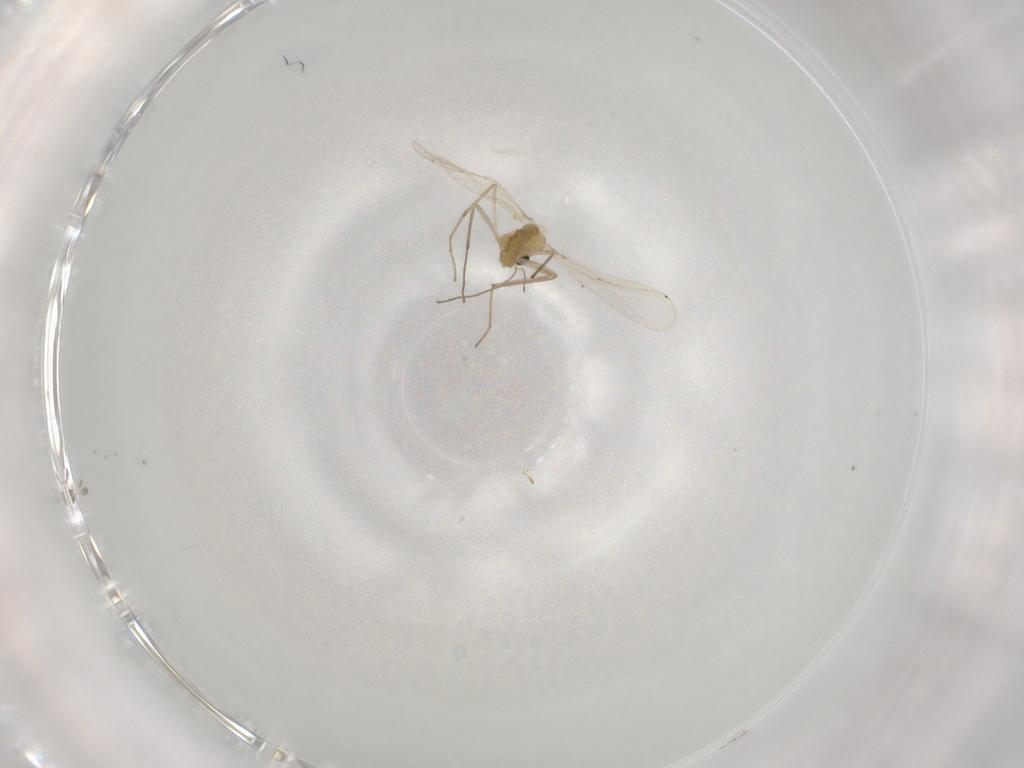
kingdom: Animalia
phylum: Arthropoda
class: Insecta
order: Diptera
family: Chironomidae
